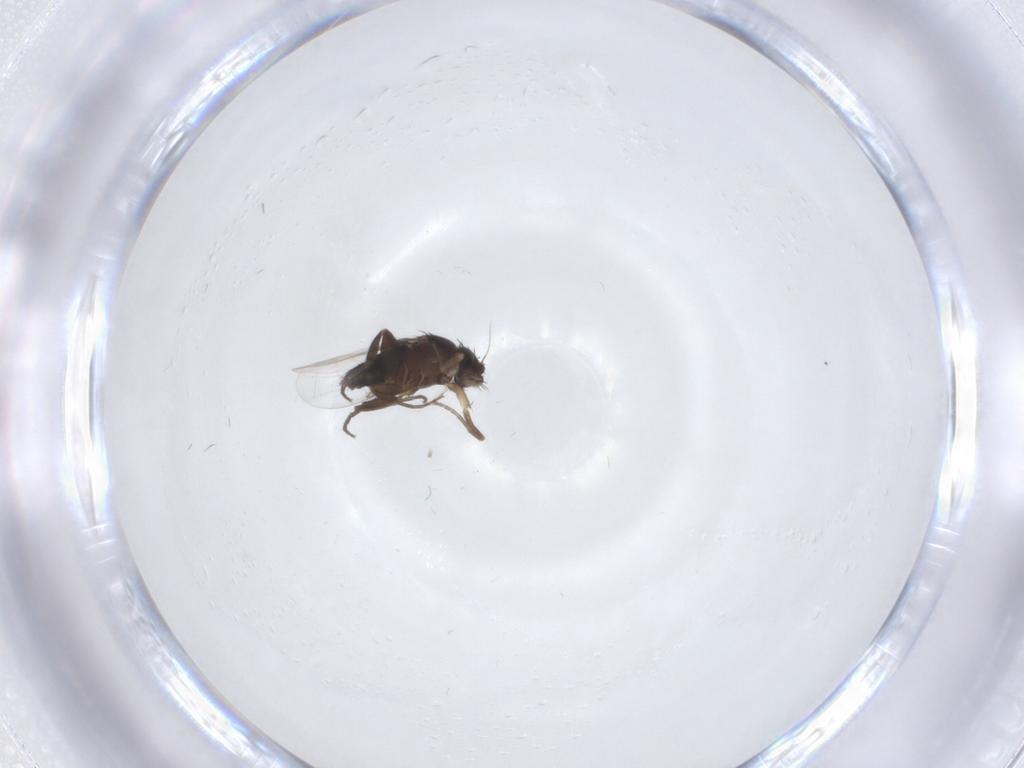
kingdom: Animalia
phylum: Arthropoda
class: Insecta
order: Diptera
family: Phoridae
